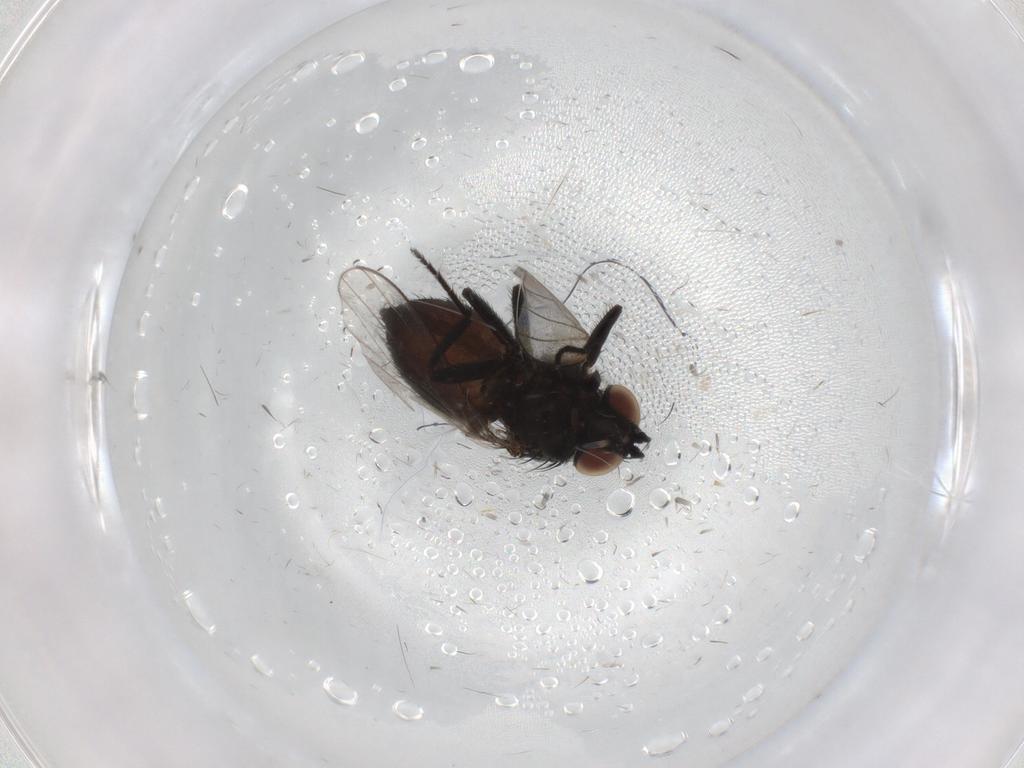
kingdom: Animalia
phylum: Arthropoda
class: Insecta
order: Diptera
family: Milichiidae
